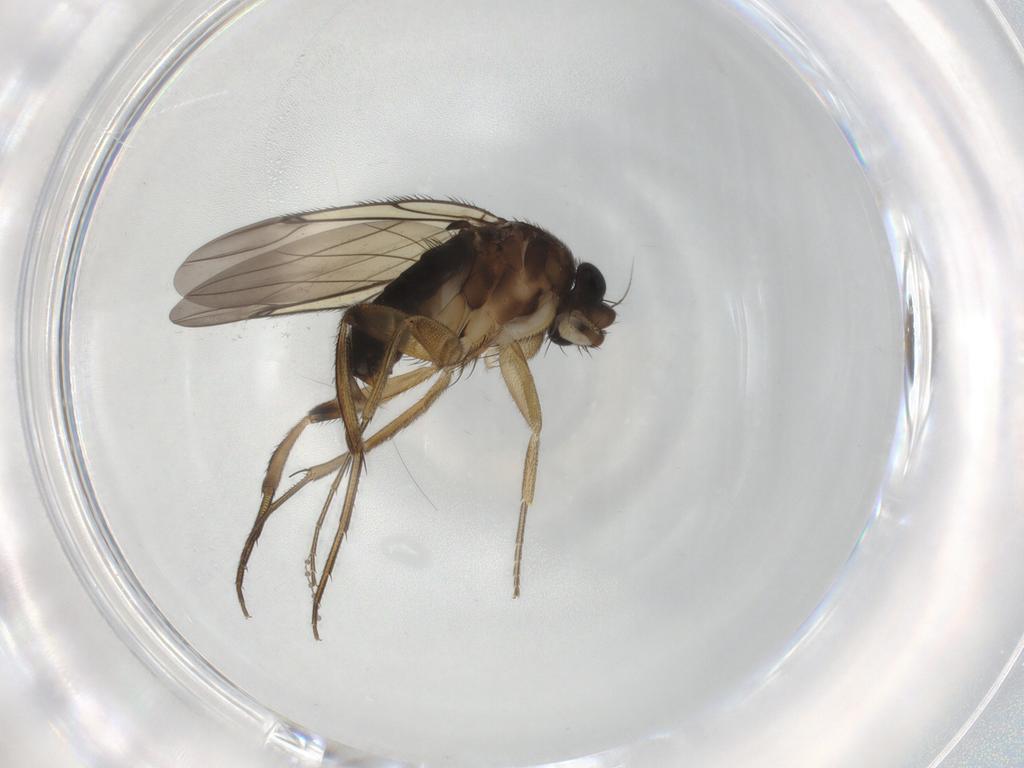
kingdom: Animalia
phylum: Arthropoda
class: Insecta
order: Diptera
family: Phoridae
